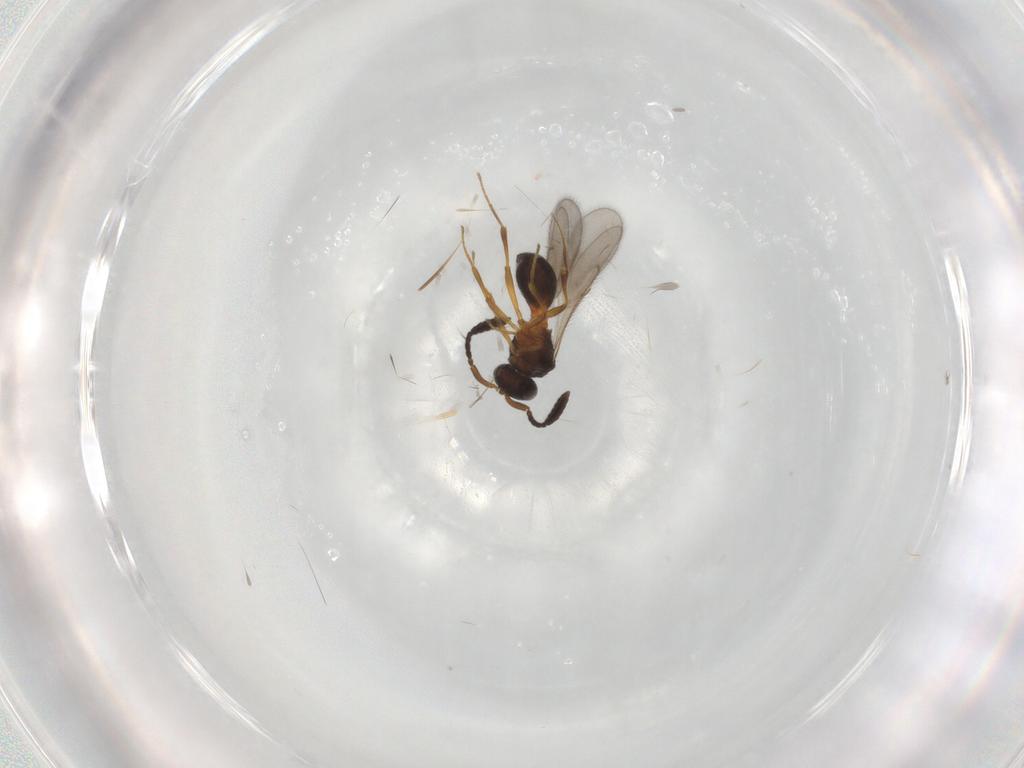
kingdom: Animalia
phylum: Arthropoda
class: Insecta
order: Hymenoptera
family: Scelionidae
